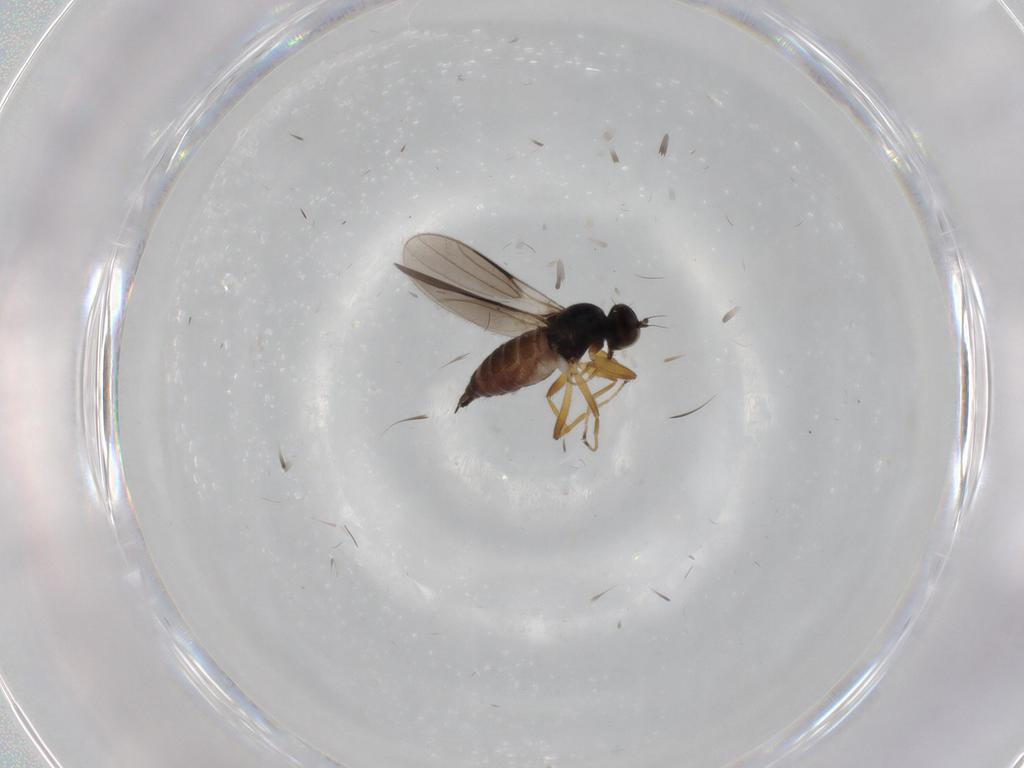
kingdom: Animalia
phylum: Arthropoda
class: Insecta
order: Diptera
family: Hybotidae
